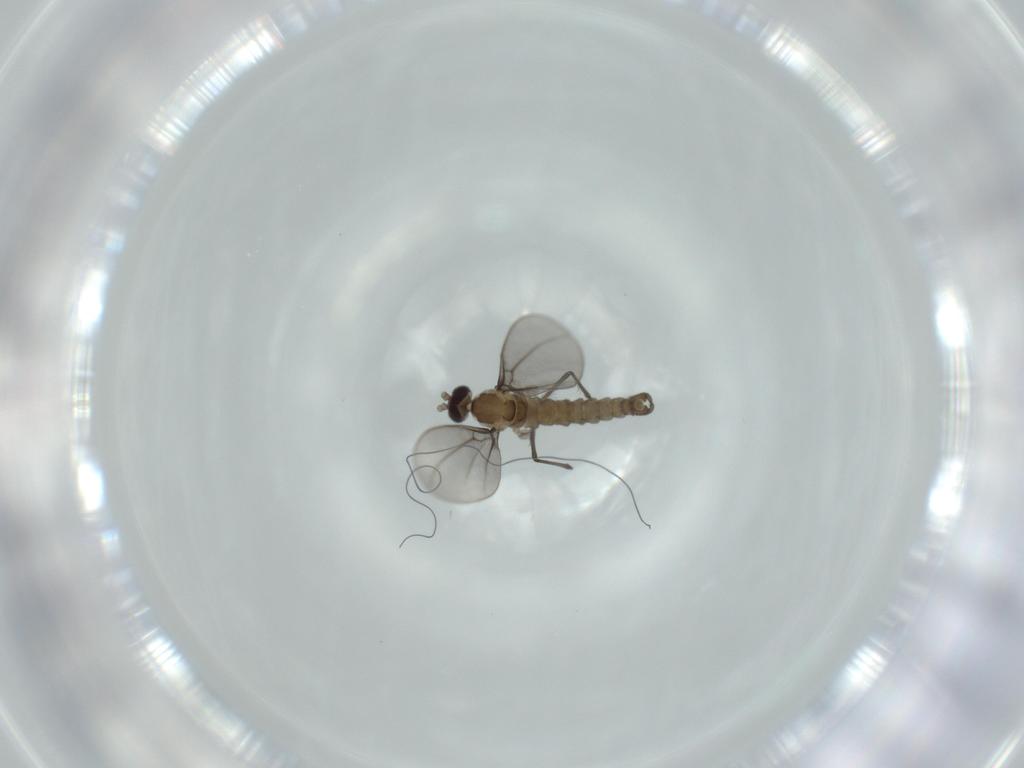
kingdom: Animalia
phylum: Arthropoda
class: Insecta
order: Diptera
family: Cecidomyiidae
